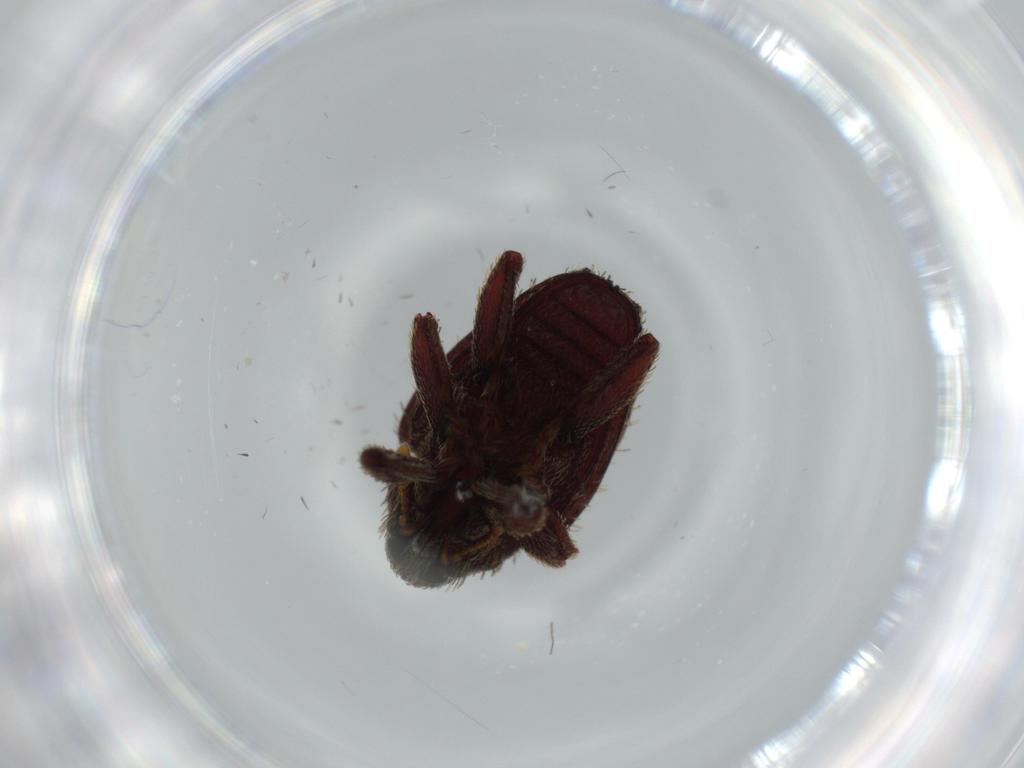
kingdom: Animalia
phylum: Arthropoda
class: Insecta
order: Coleoptera
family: Curculionidae
